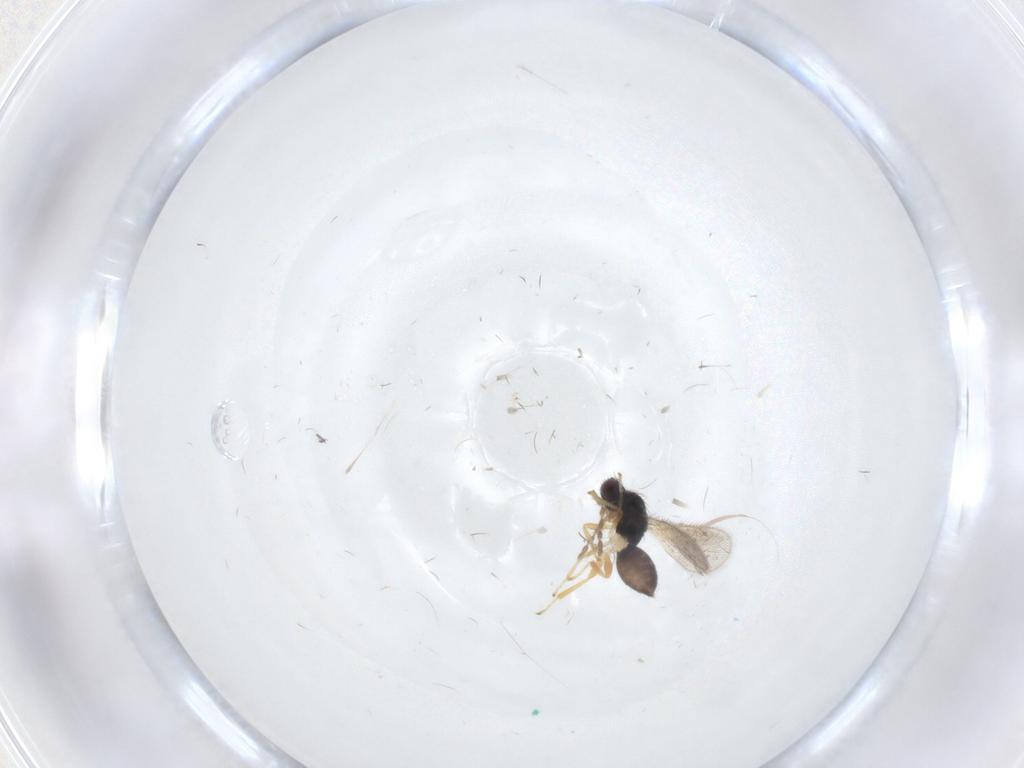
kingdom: Animalia
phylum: Arthropoda
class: Insecta
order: Hymenoptera
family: Eulophidae
